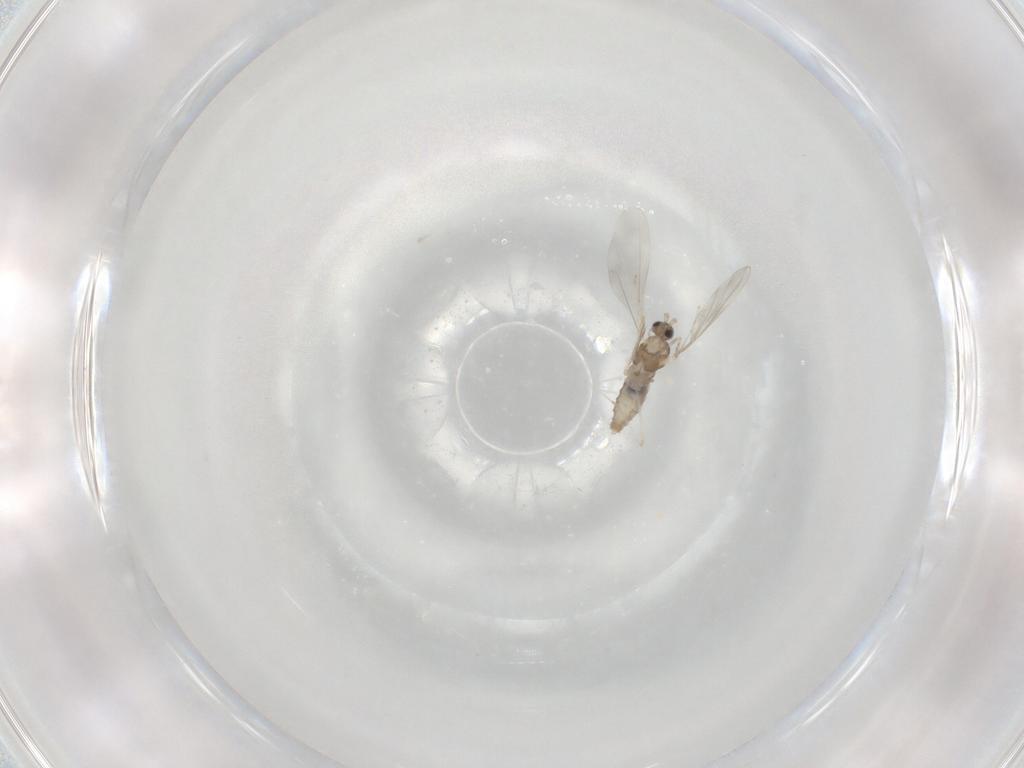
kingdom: Animalia
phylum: Arthropoda
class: Insecta
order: Diptera
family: Cecidomyiidae
